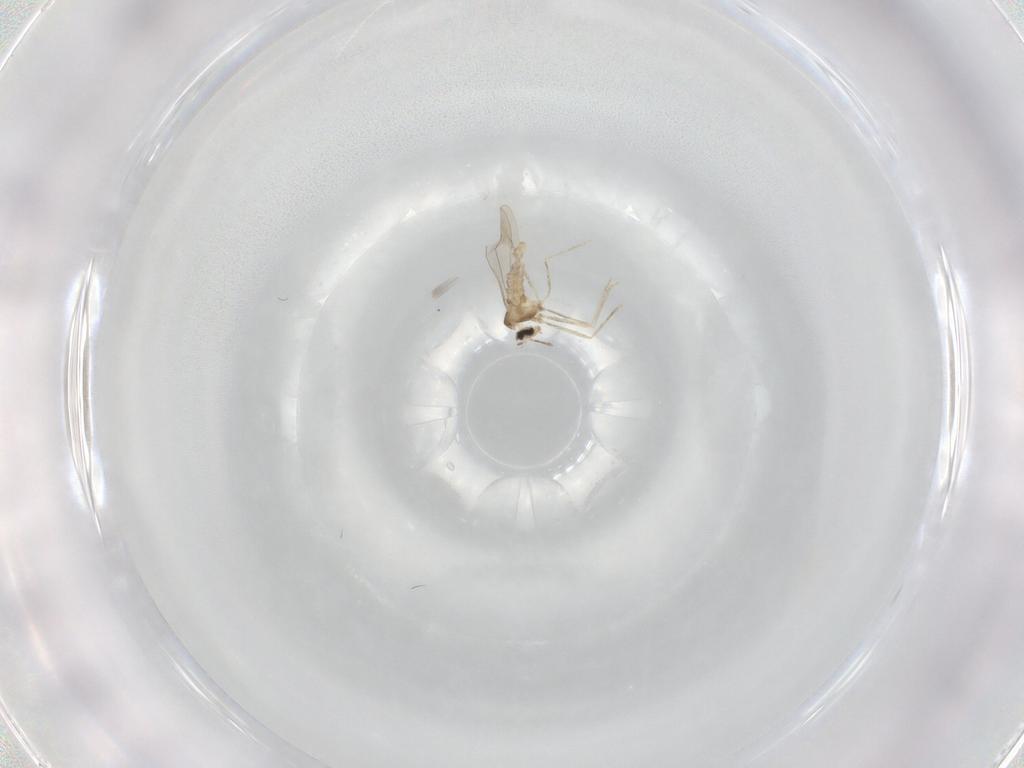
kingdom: Animalia
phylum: Arthropoda
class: Insecta
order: Diptera
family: Cecidomyiidae
